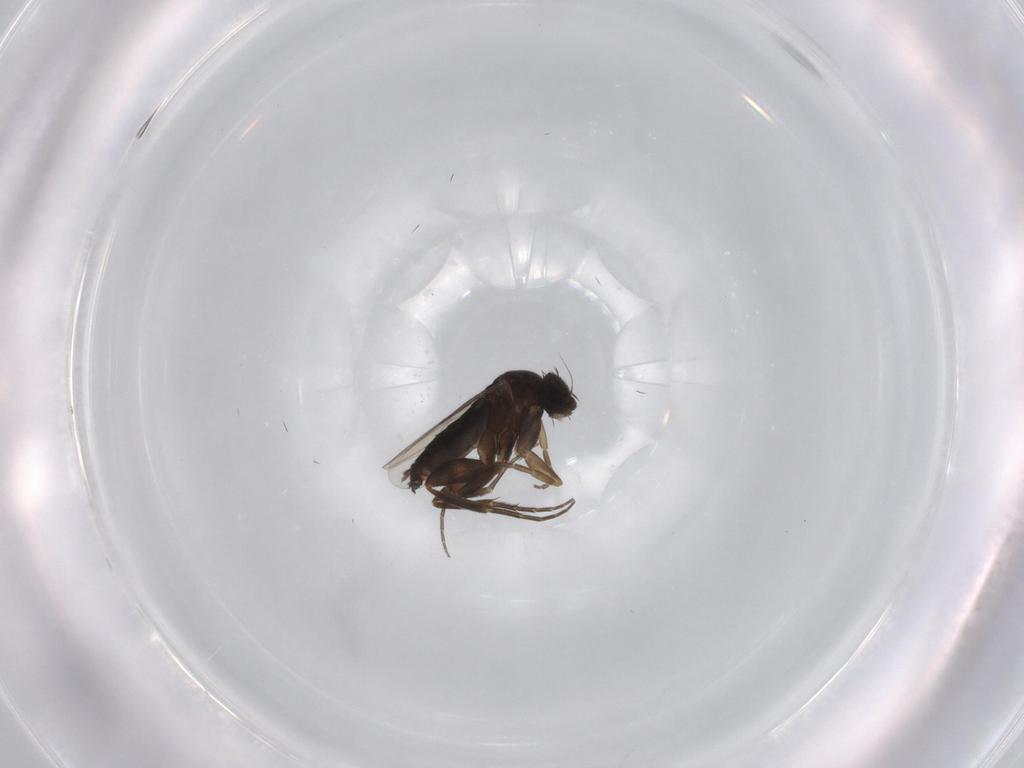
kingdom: Animalia
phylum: Arthropoda
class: Insecta
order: Diptera
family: Phoridae
